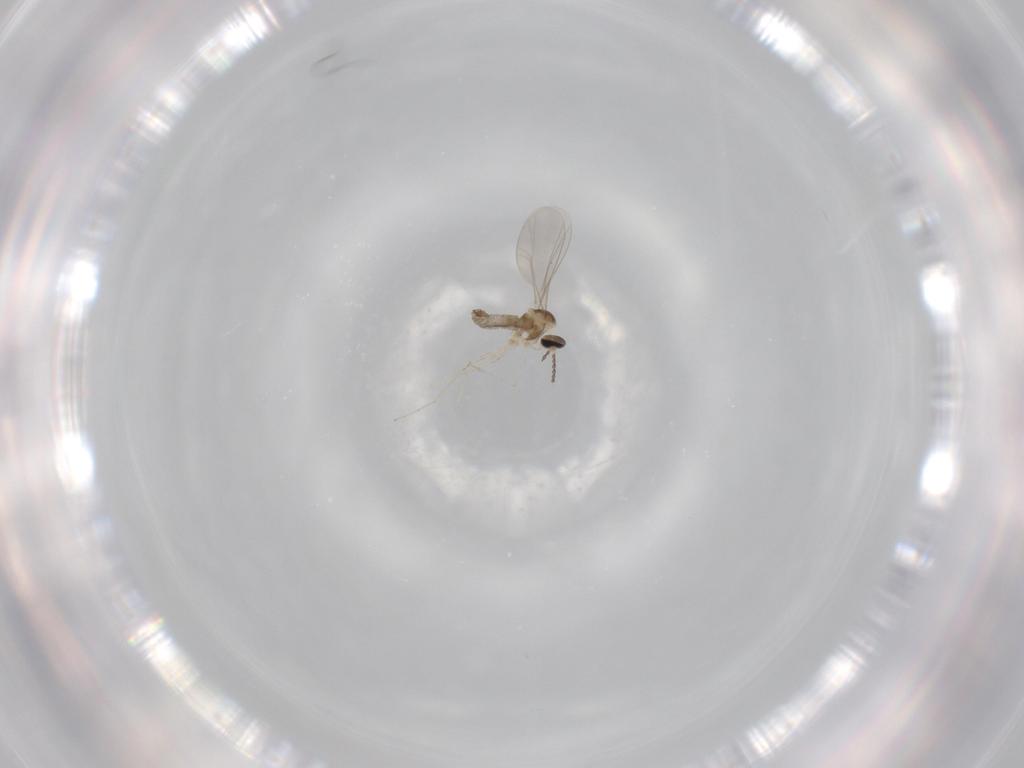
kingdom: Animalia
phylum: Arthropoda
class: Insecta
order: Diptera
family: Cecidomyiidae
